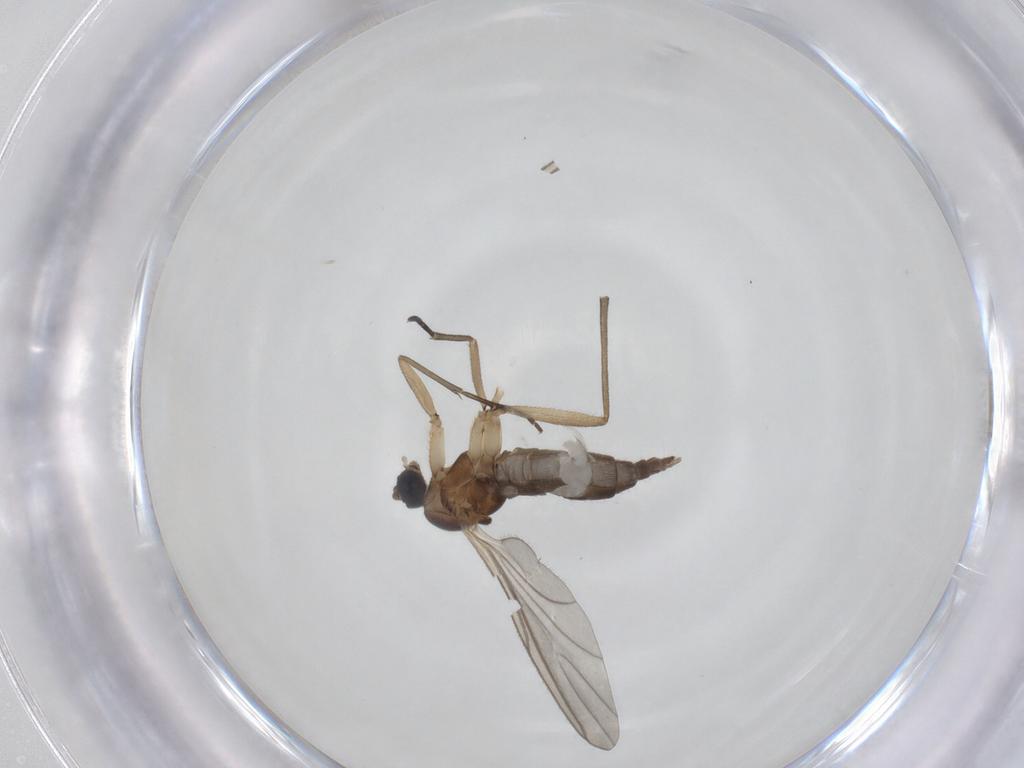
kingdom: Animalia
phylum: Arthropoda
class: Insecta
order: Diptera
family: Sciaridae
